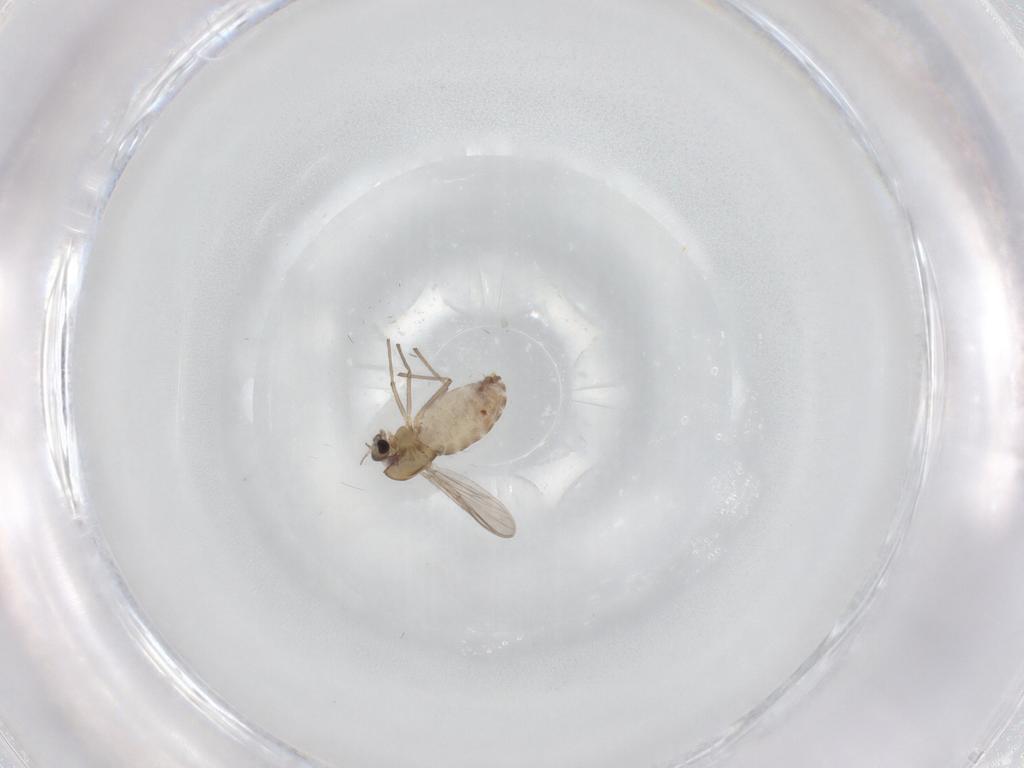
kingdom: Animalia
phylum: Arthropoda
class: Insecta
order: Diptera
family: Chironomidae
